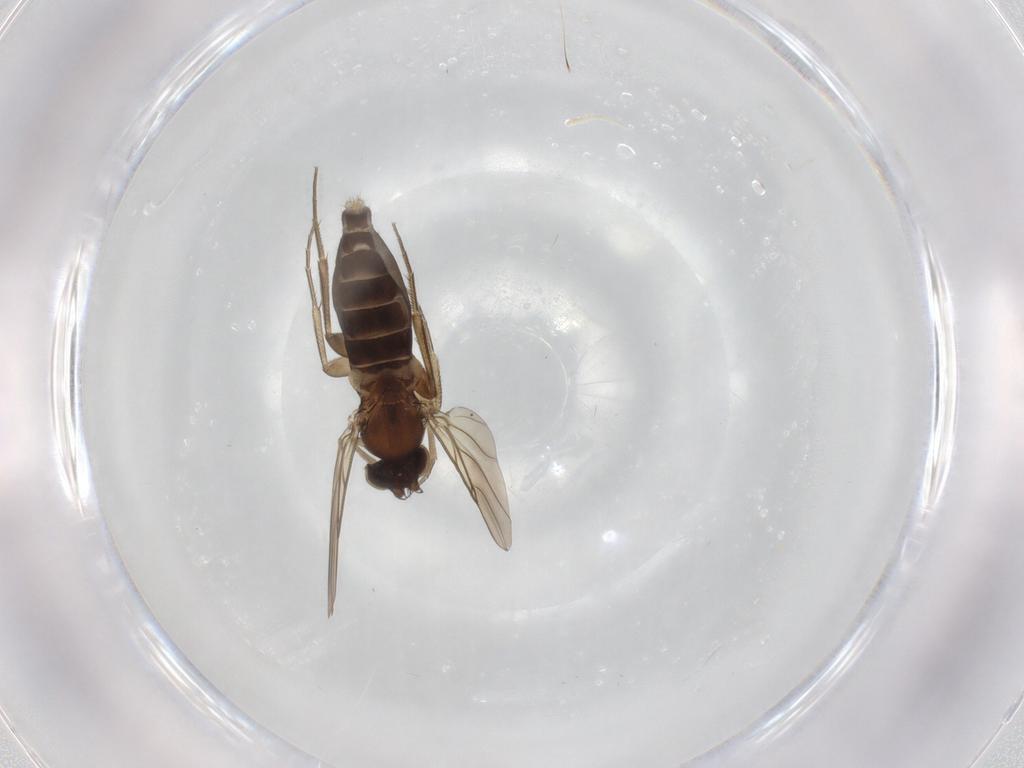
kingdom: Animalia
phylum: Arthropoda
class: Insecta
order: Diptera
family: Phoridae
